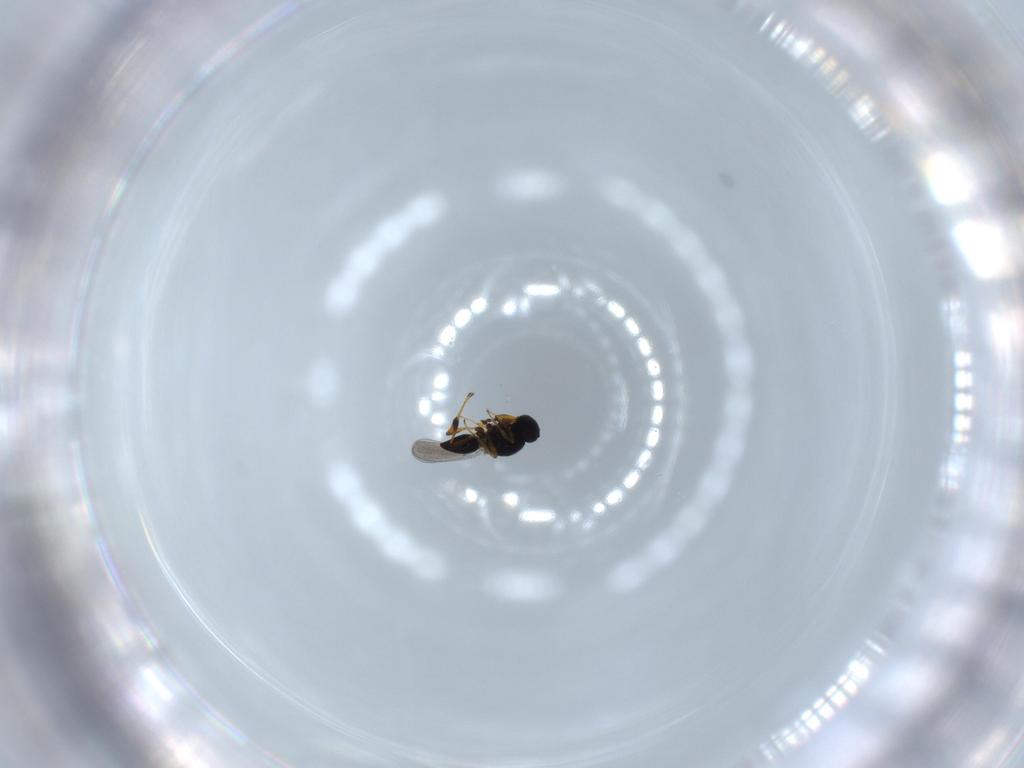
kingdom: Animalia
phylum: Arthropoda
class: Insecta
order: Hymenoptera
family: Platygastridae
